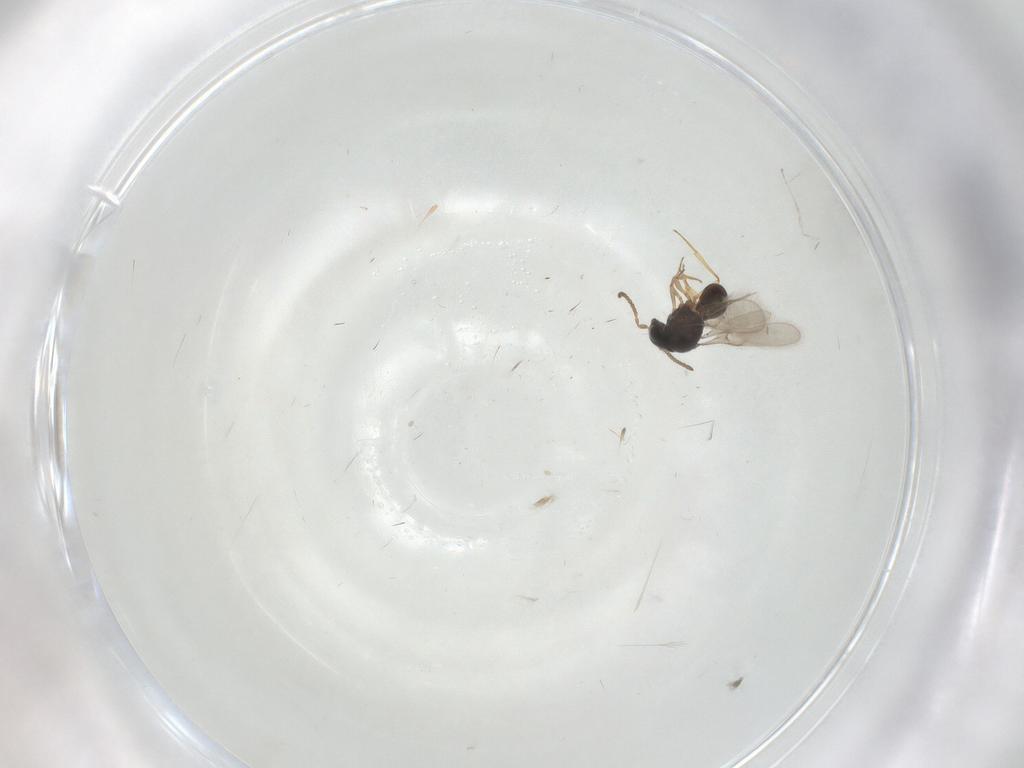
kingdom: Animalia
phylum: Arthropoda
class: Insecta
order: Hymenoptera
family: Scelionidae
